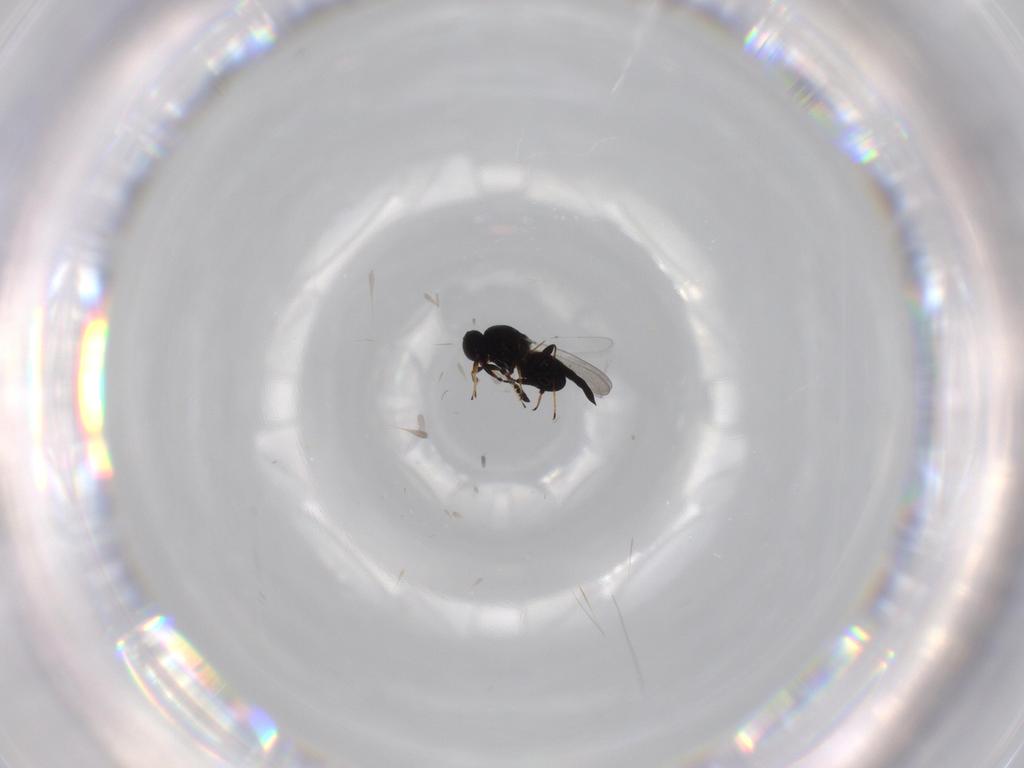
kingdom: Animalia
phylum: Arthropoda
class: Insecta
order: Hymenoptera
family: Platygastridae
